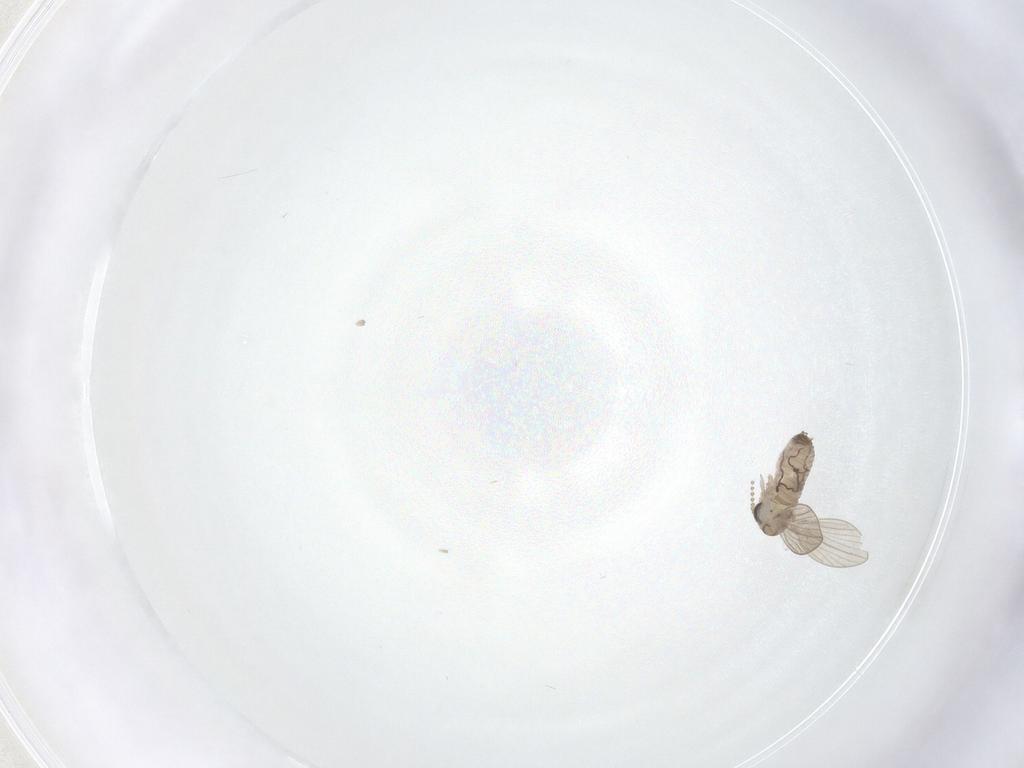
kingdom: Animalia
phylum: Arthropoda
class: Insecta
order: Diptera
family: Psychodidae
